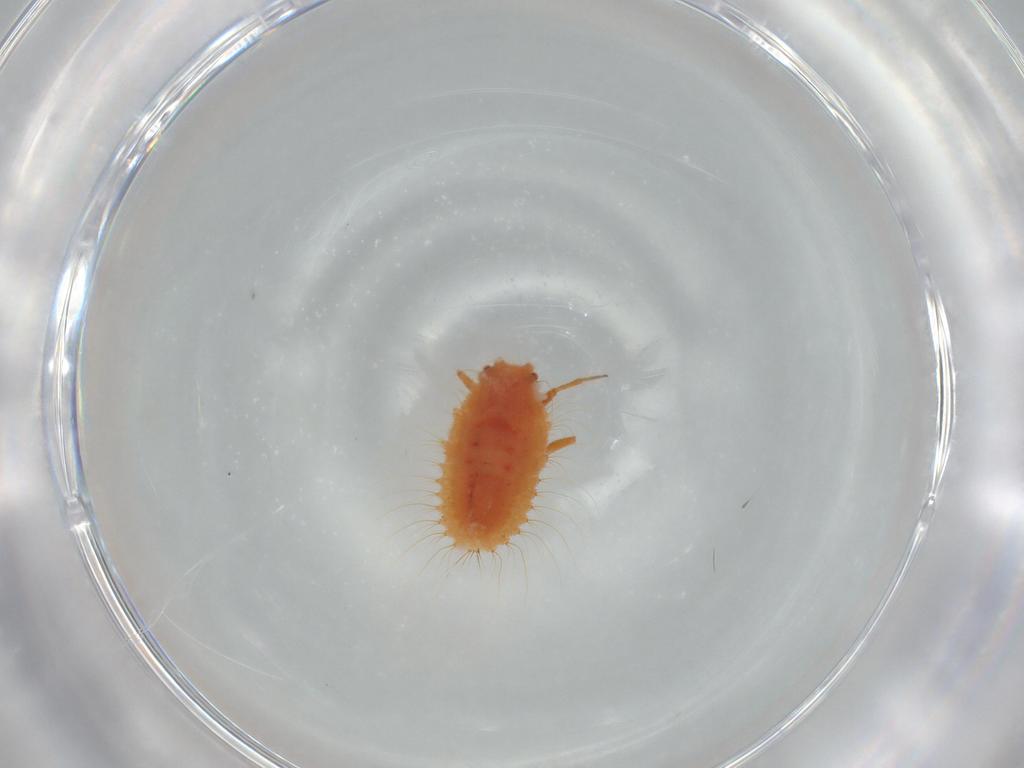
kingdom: Animalia
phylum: Arthropoda
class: Insecta
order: Hemiptera
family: Coccoidea_incertae_sedis
